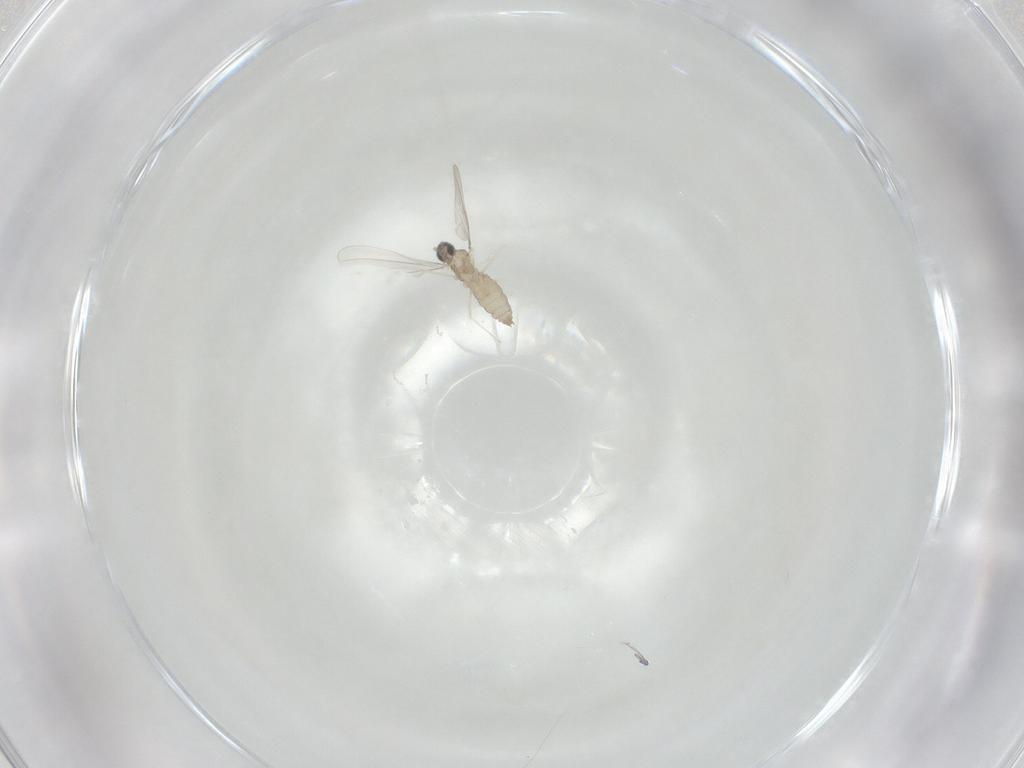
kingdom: Animalia
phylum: Arthropoda
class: Insecta
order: Diptera
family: Cecidomyiidae
